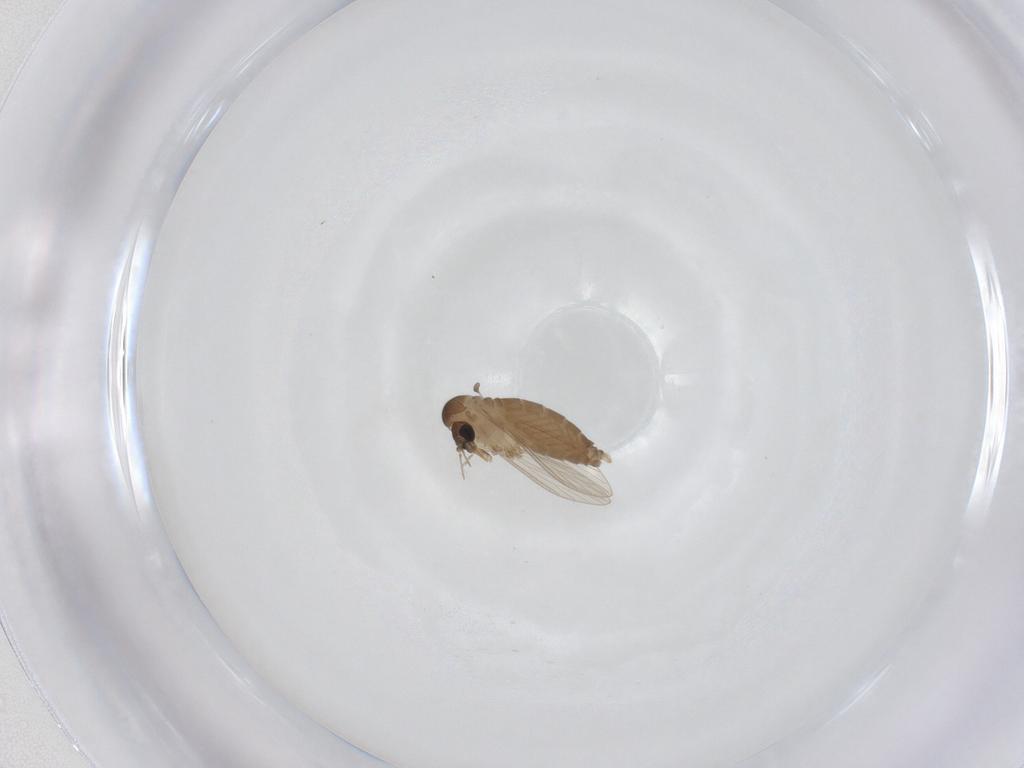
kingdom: Animalia
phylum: Arthropoda
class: Insecta
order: Diptera
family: Psychodidae
